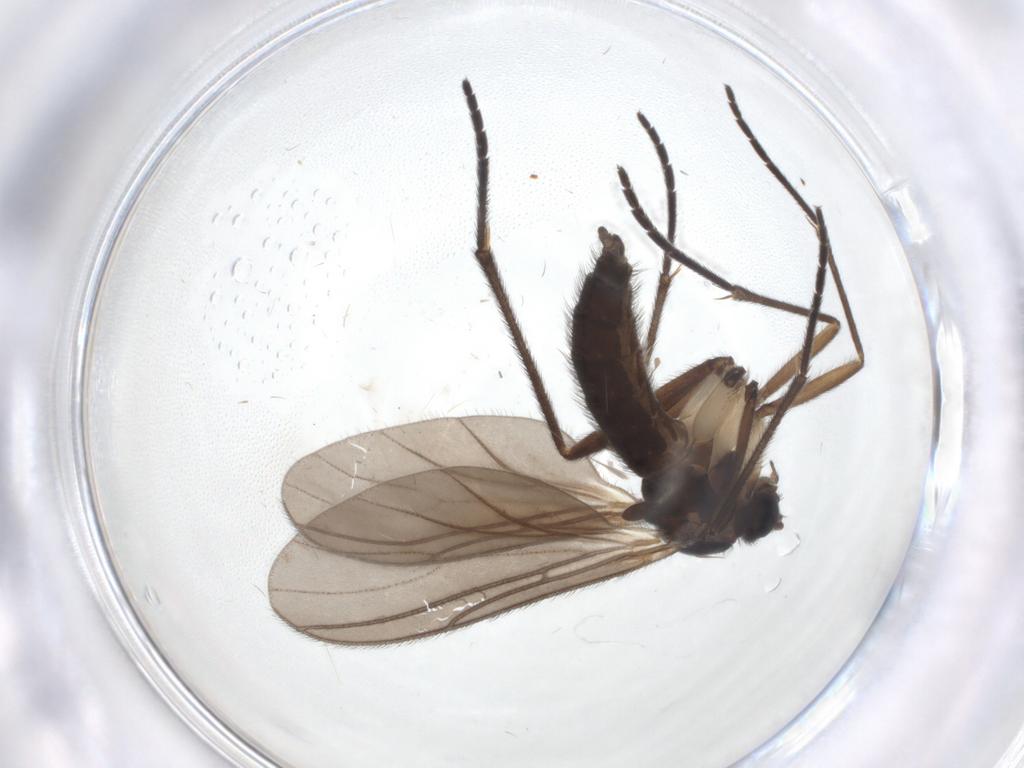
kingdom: Animalia
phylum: Arthropoda
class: Insecta
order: Diptera
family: Sciaridae
